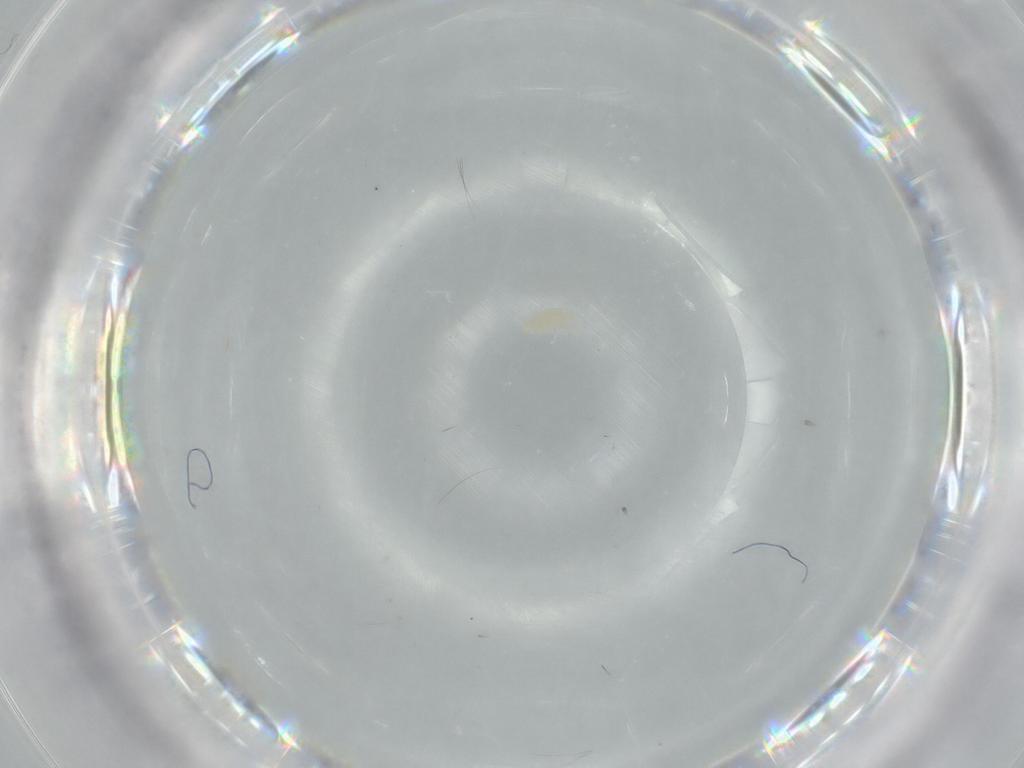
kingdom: Animalia
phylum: Arthropoda
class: Arachnida
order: Trombidiformes
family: Eupodidae
